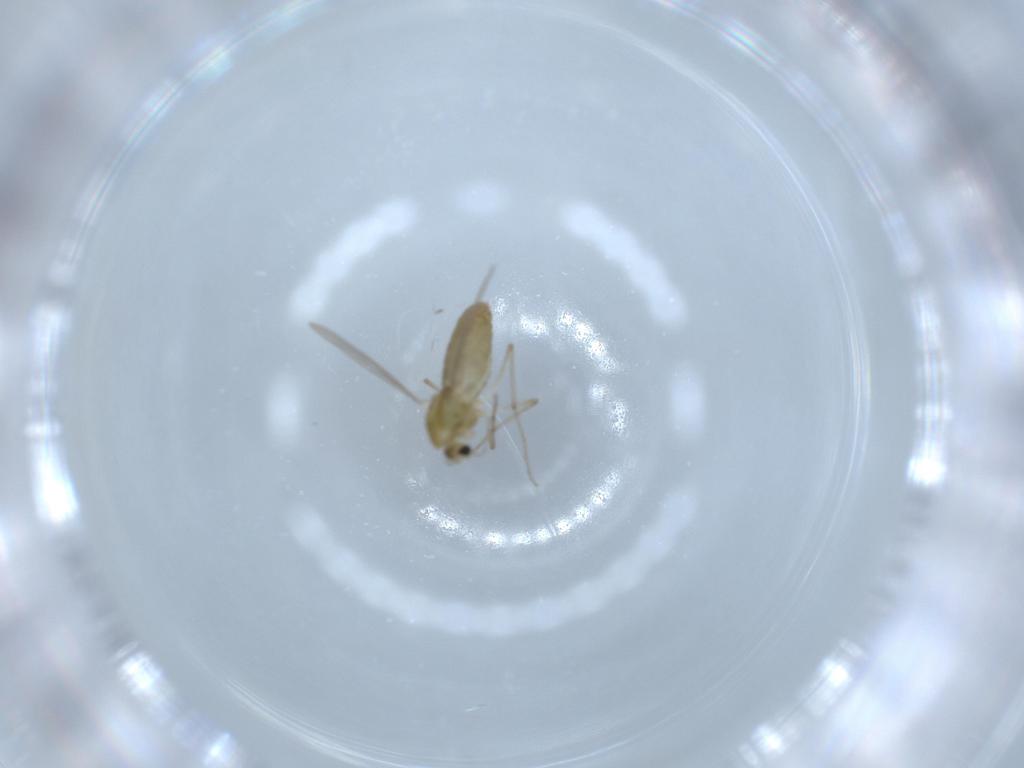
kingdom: Animalia
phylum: Arthropoda
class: Insecta
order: Diptera
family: Chironomidae
